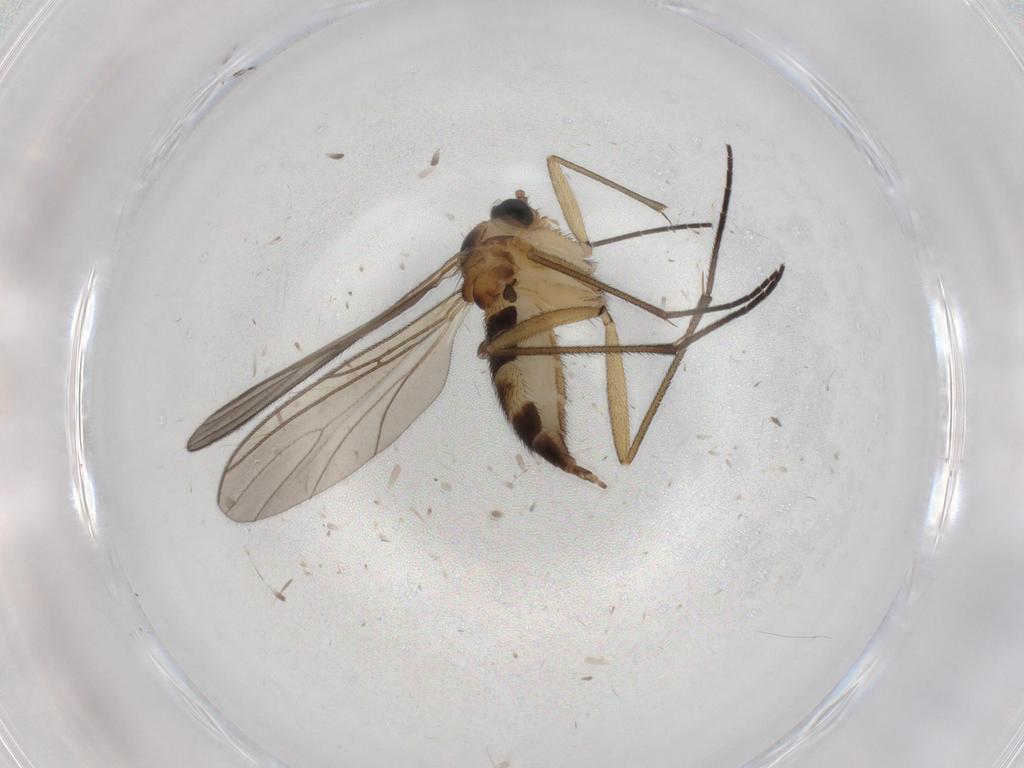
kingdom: Animalia
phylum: Arthropoda
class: Insecta
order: Diptera
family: Sciaridae
